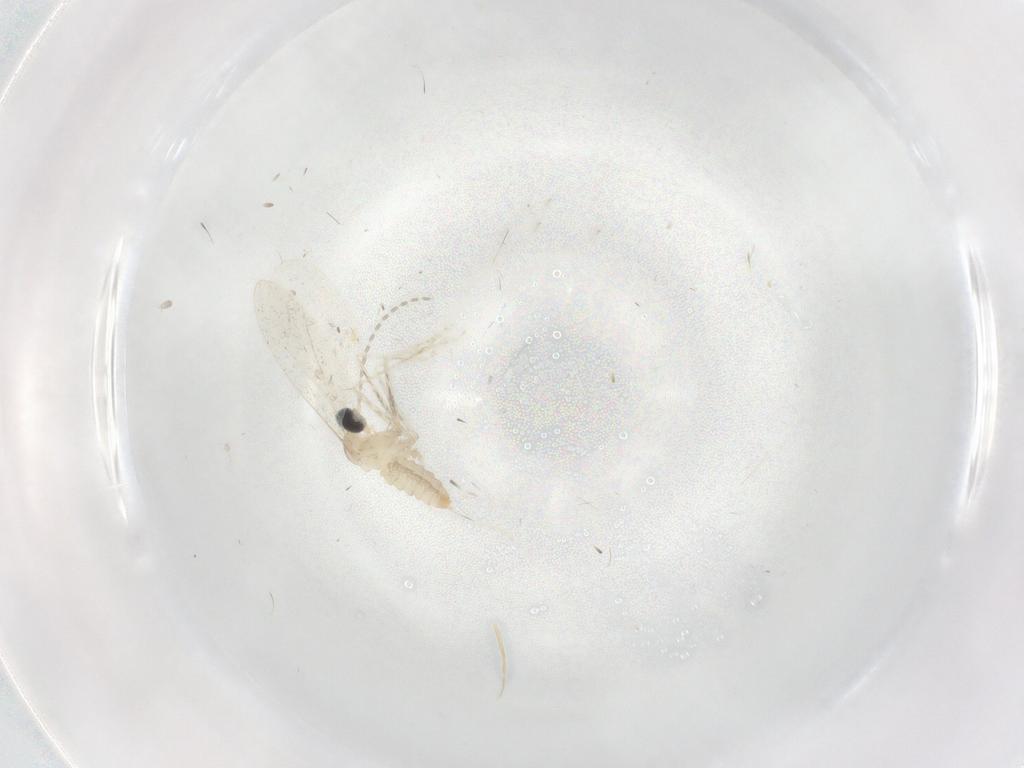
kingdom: Animalia
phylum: Arthropoda
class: Insecta
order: Diptera
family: Cecidomyiidae
